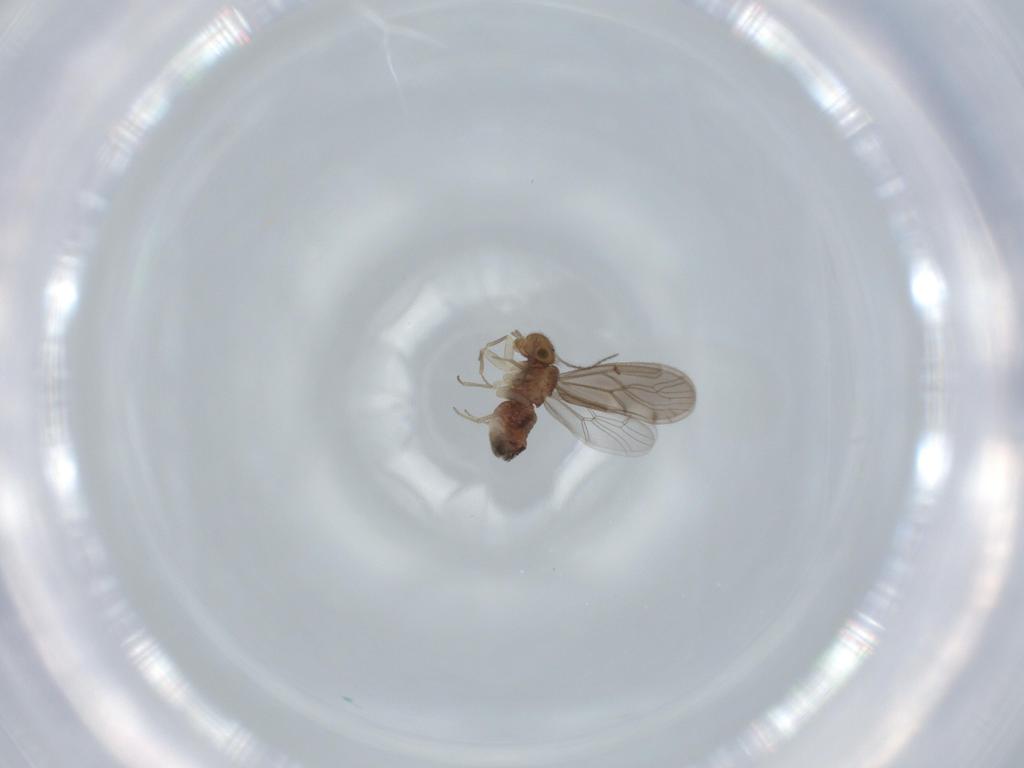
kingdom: Animalia
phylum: Arthropoda
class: Insecta
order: Psocodea
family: Ectopsocidae
